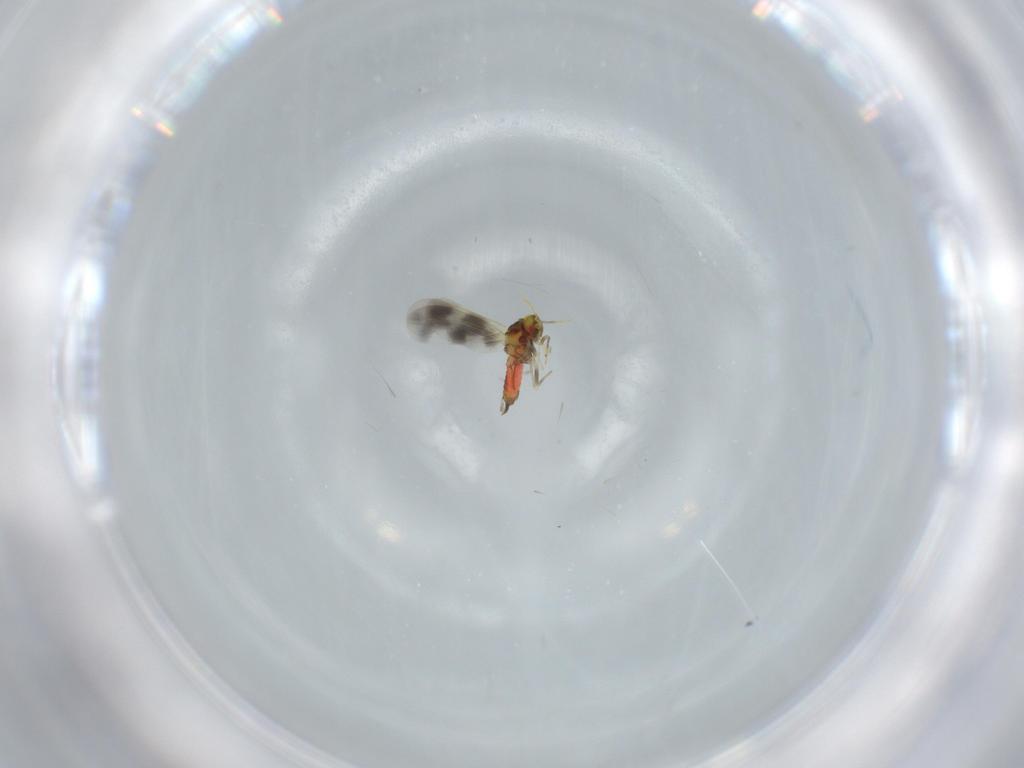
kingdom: Animalia
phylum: Arthropoda
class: Insecta
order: Hemiptera
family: Aleyrodidae
